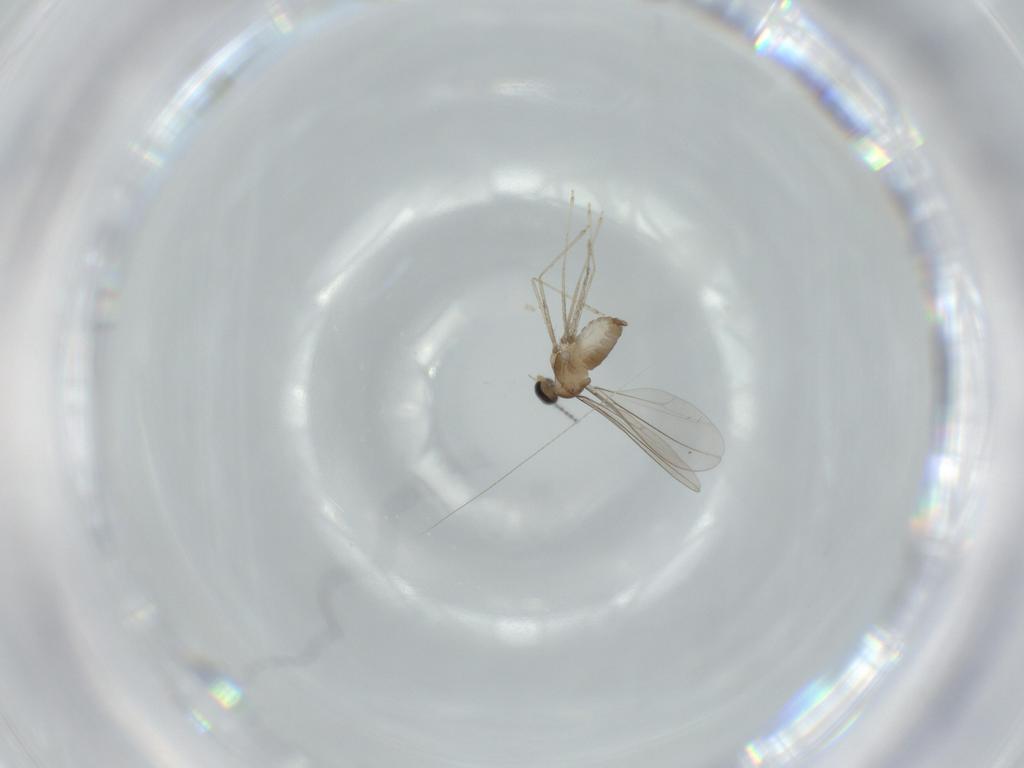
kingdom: Animalia
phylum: Arthropoda
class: Insecta
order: Diptera
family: Cecidomyiidae
